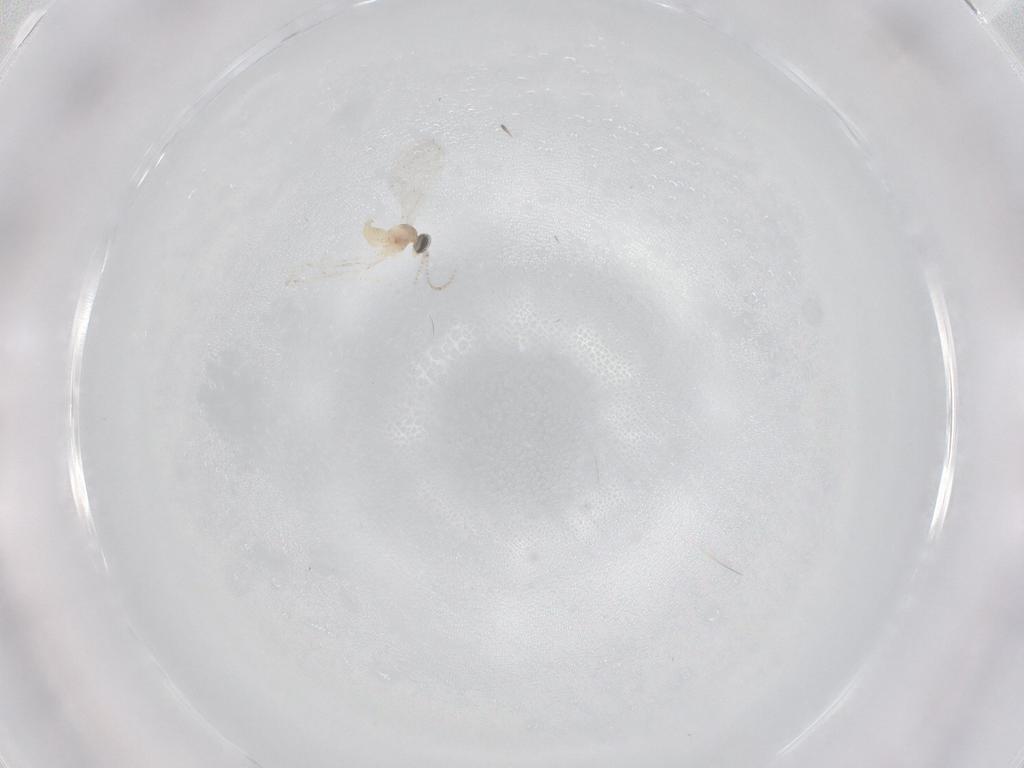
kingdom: Animalia
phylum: Arthropoda
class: Insecta
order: Diptera
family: Cecidomyiidae
